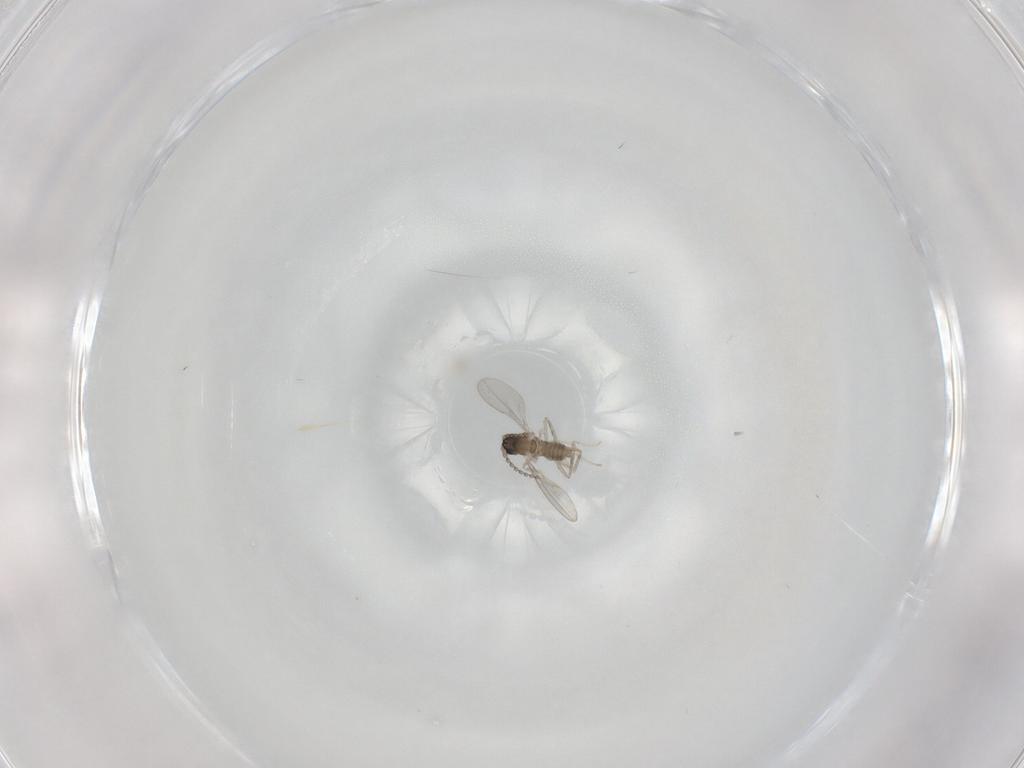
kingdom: Animalia
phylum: Arthropoda
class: Insecta
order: Diptera
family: Cecidomyiidae
